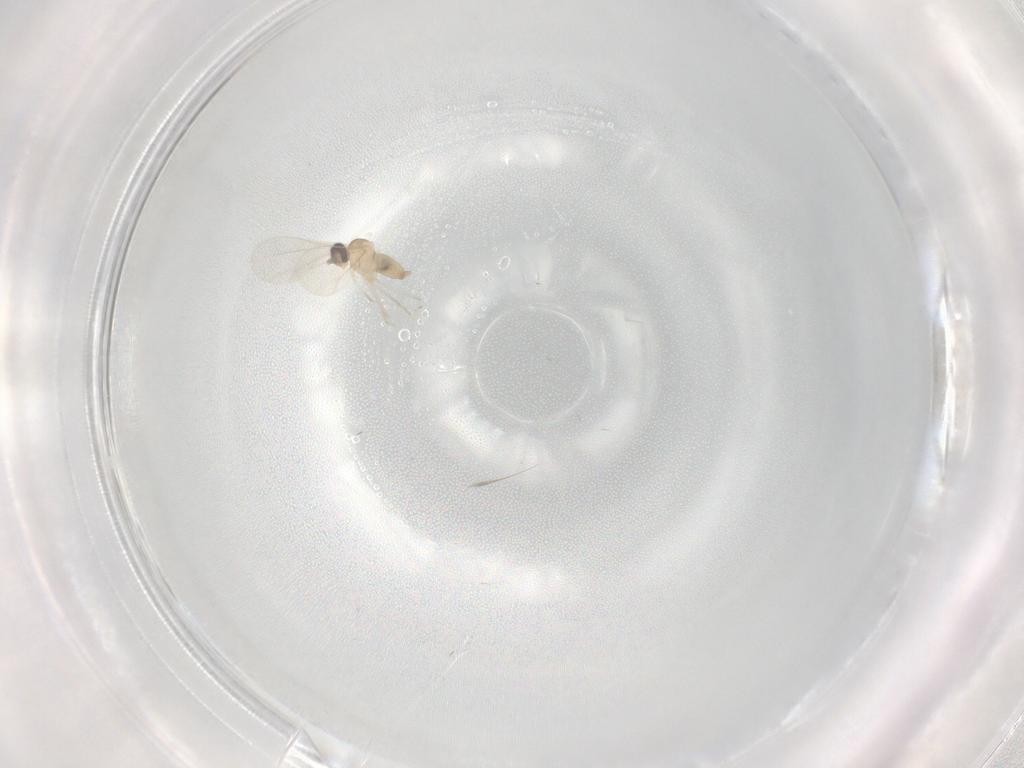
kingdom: Animalia
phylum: Arthropoda
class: Insecta
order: Diptera
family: Cecidomyiidae
